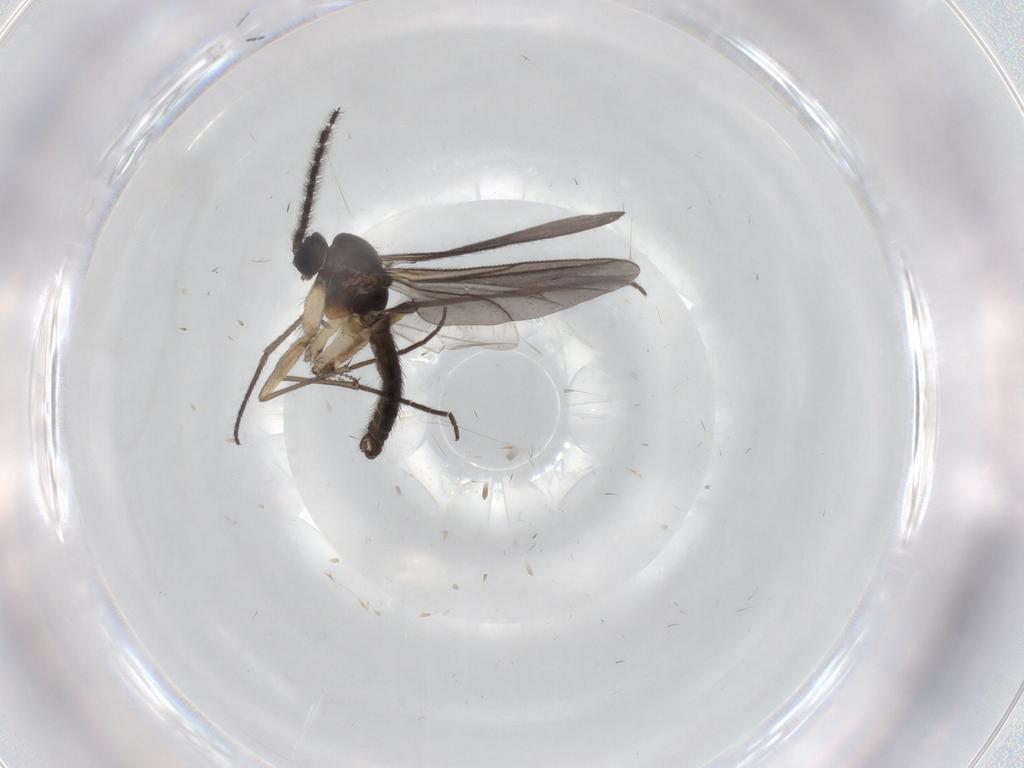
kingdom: Animalia
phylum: Arthropoda
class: Insecta
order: Diptera
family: Sciaridae
